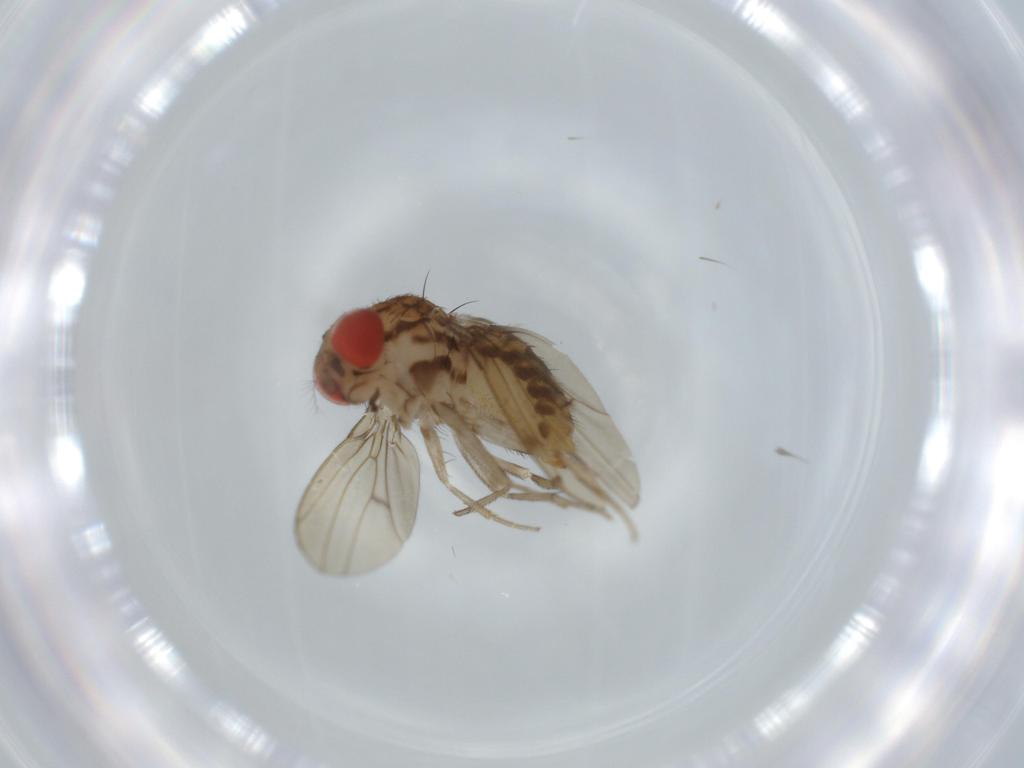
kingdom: Animalia
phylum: Arthropoda
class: Insecta
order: Diptera
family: Drosophilidae
